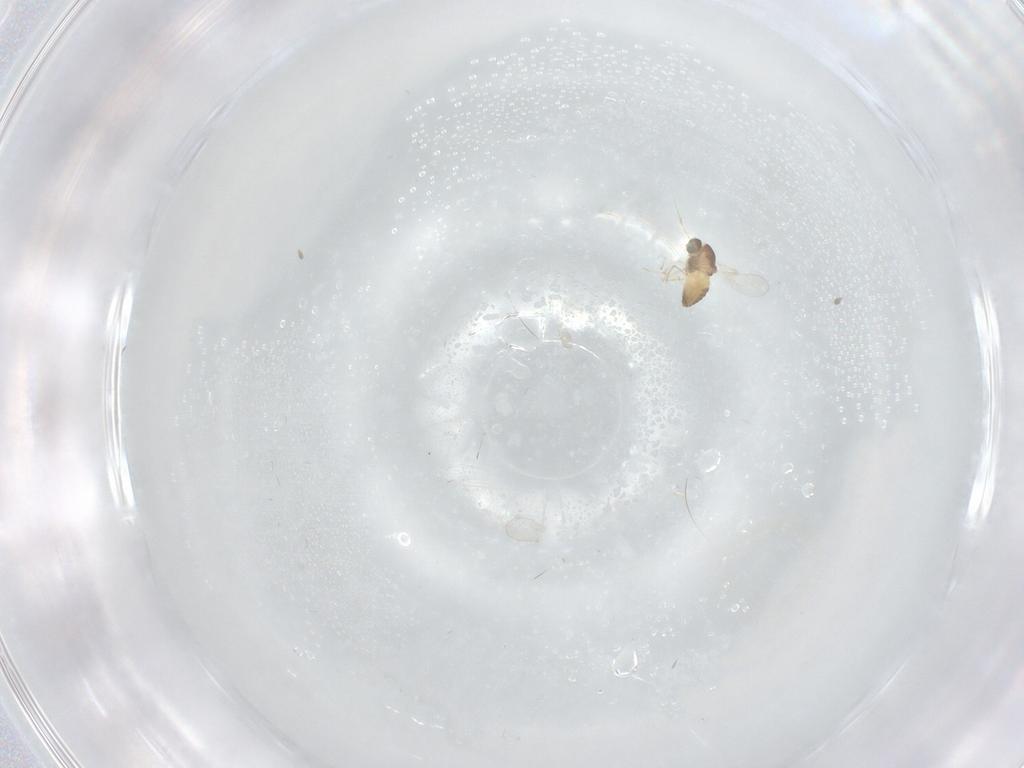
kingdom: Animalia
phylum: Arthropoda
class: Insecta
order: Diptera
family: Chironomidae
